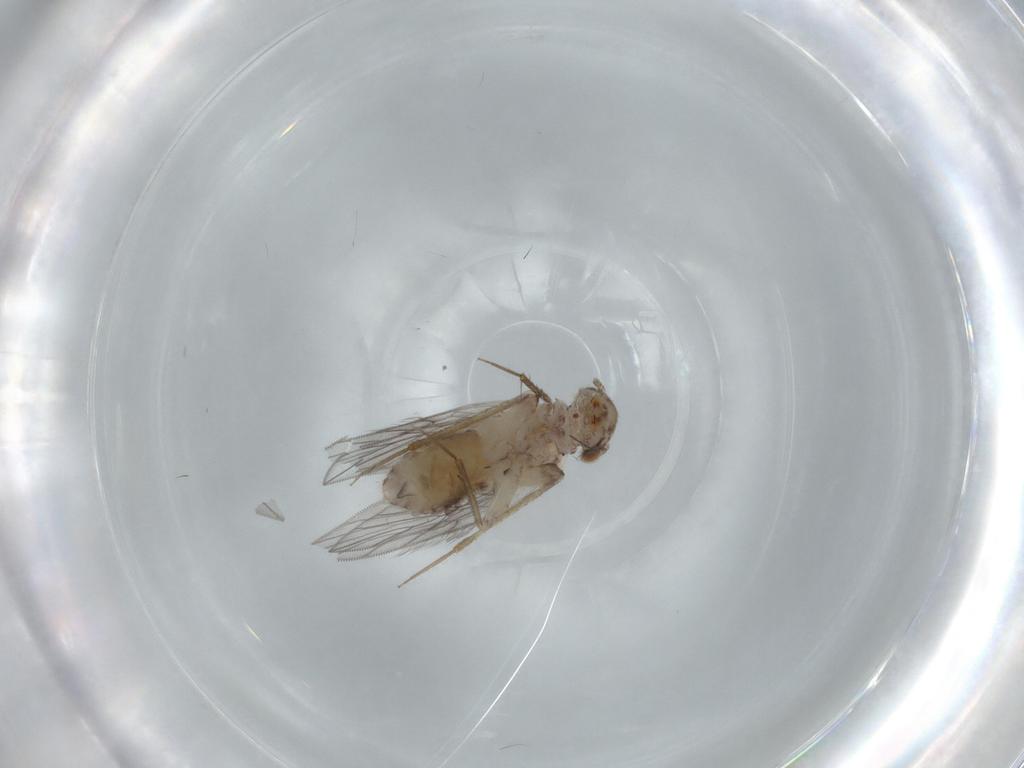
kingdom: Animalia
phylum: Arthropoda
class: Insecta
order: Psocodea
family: Lepidopsocidae
